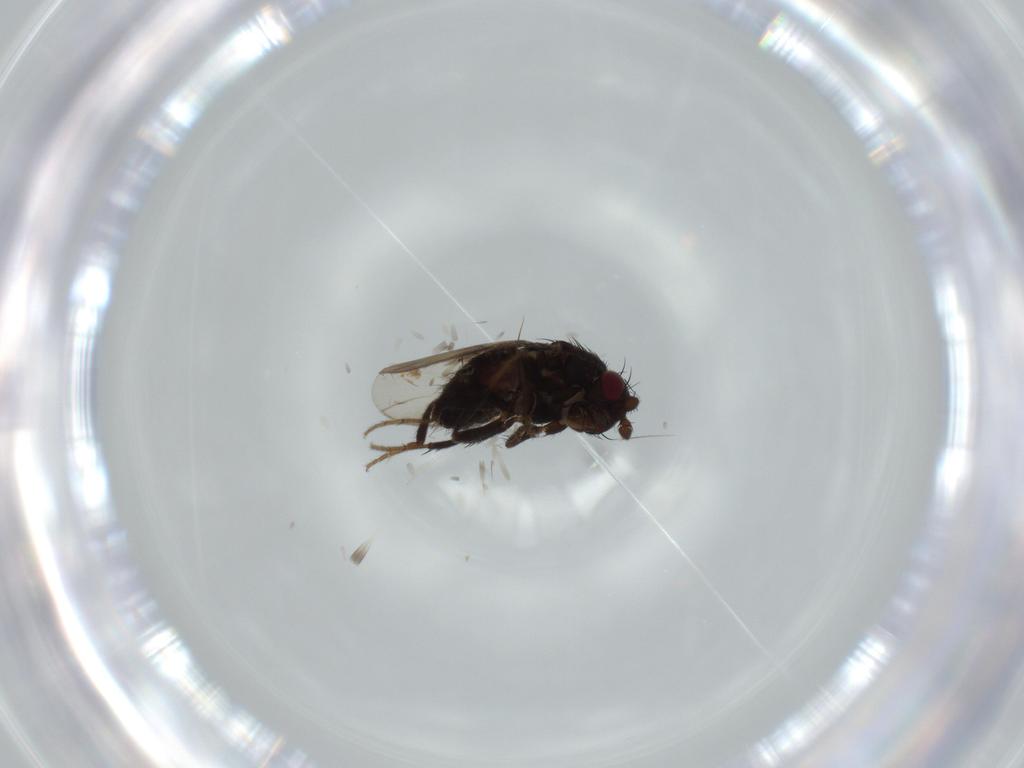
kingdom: Animalia
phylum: Arthropoda
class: Insecta
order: Diptera
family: Sphaeroceridae
